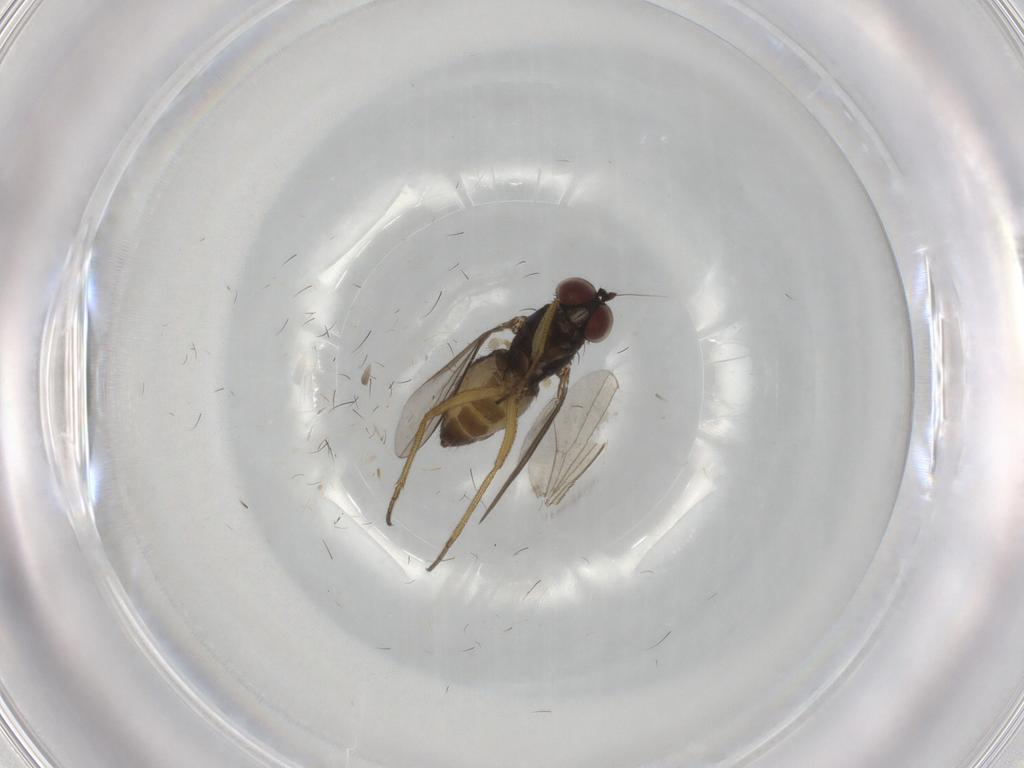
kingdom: Animalia
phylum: Arthropoda
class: Insecta
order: Diptera
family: Dolichopodidae
